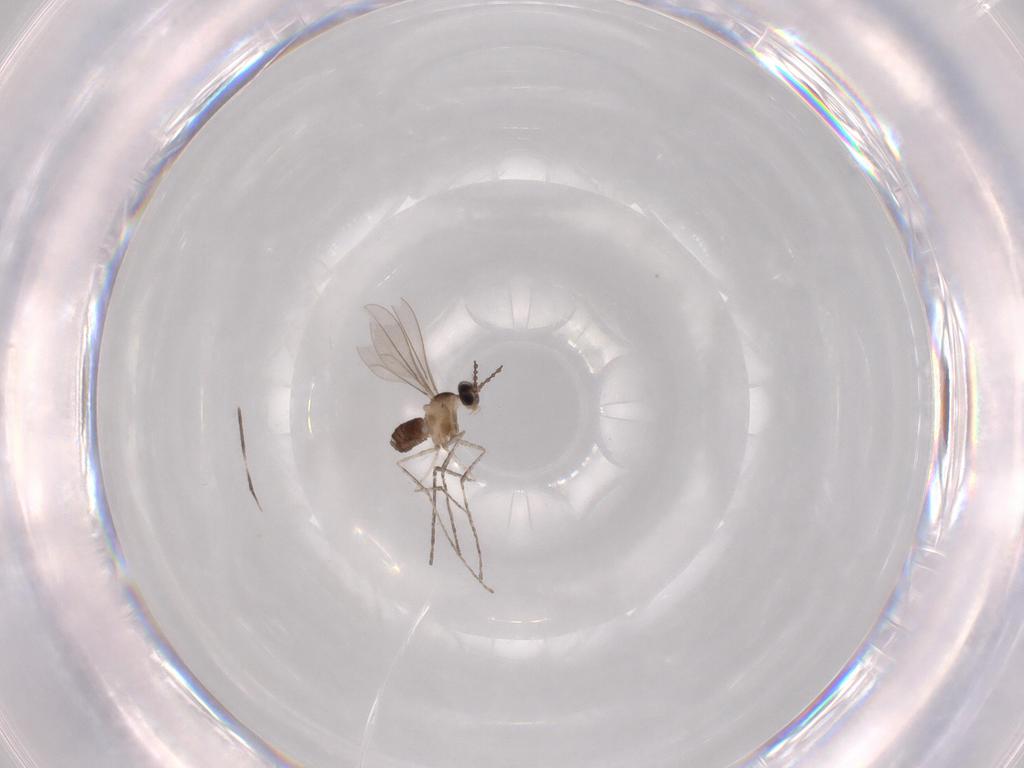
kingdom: Animalia
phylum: Arthropoda
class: Insecta
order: Diptera
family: Cecidomyiidae
